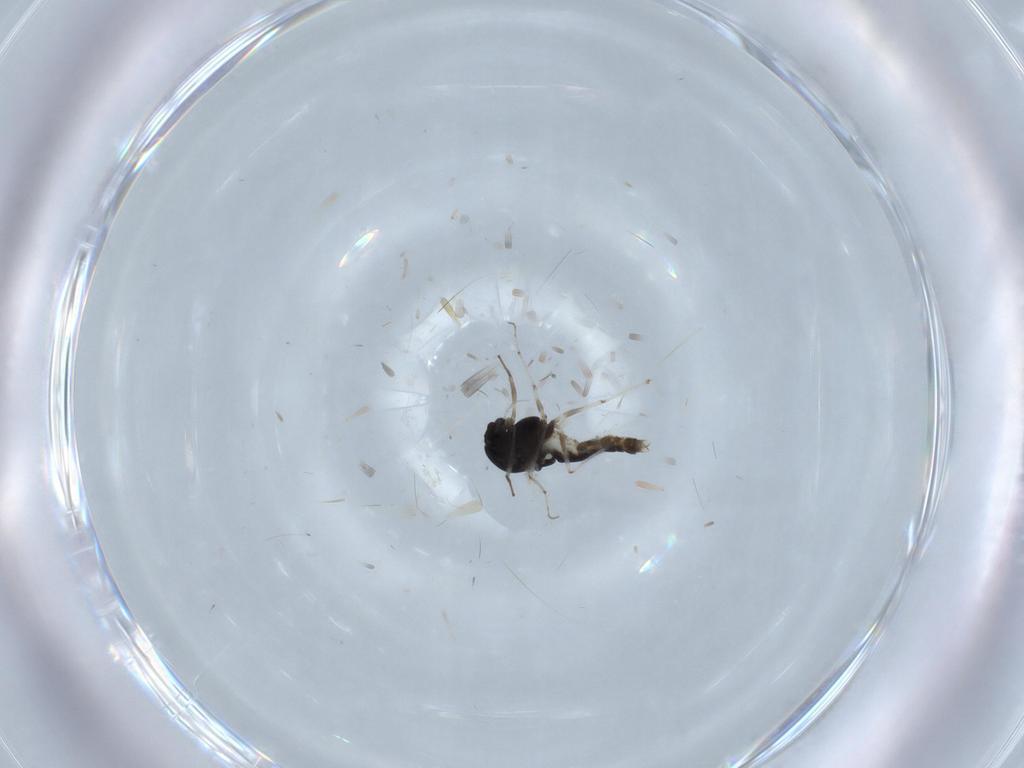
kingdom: Animalia
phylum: Arthropoda
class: Insecta
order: Diptera
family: Chironomidae
